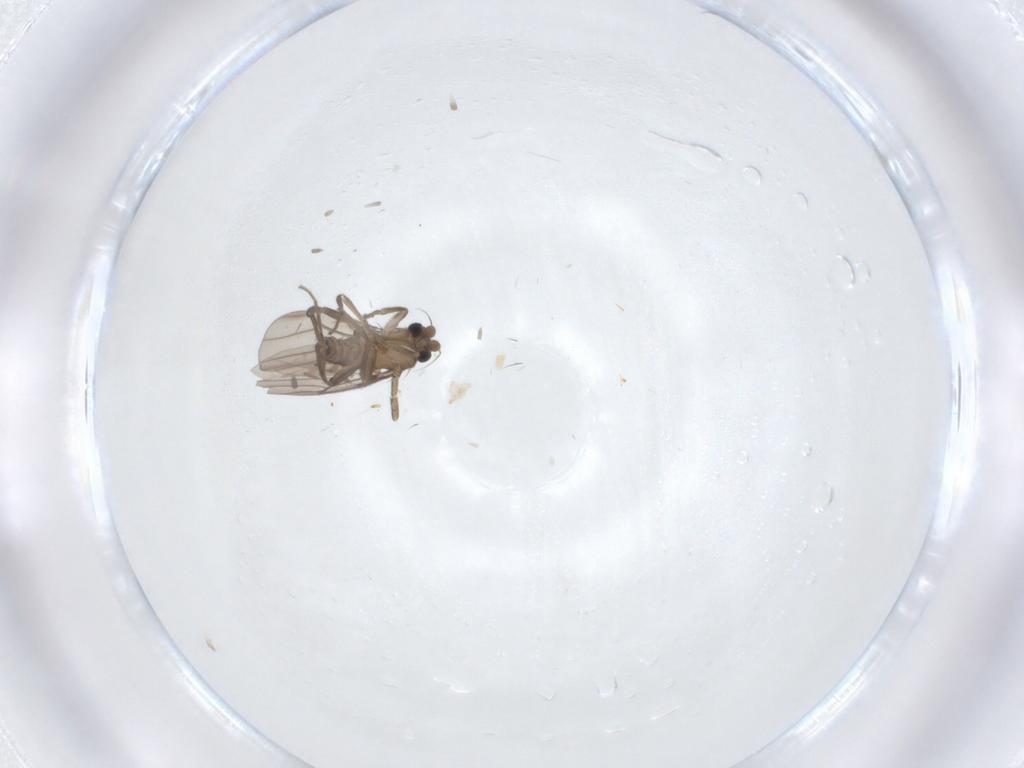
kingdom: Animalia
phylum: Arthropoda
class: Insecta
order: Diptera
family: Phoridae
